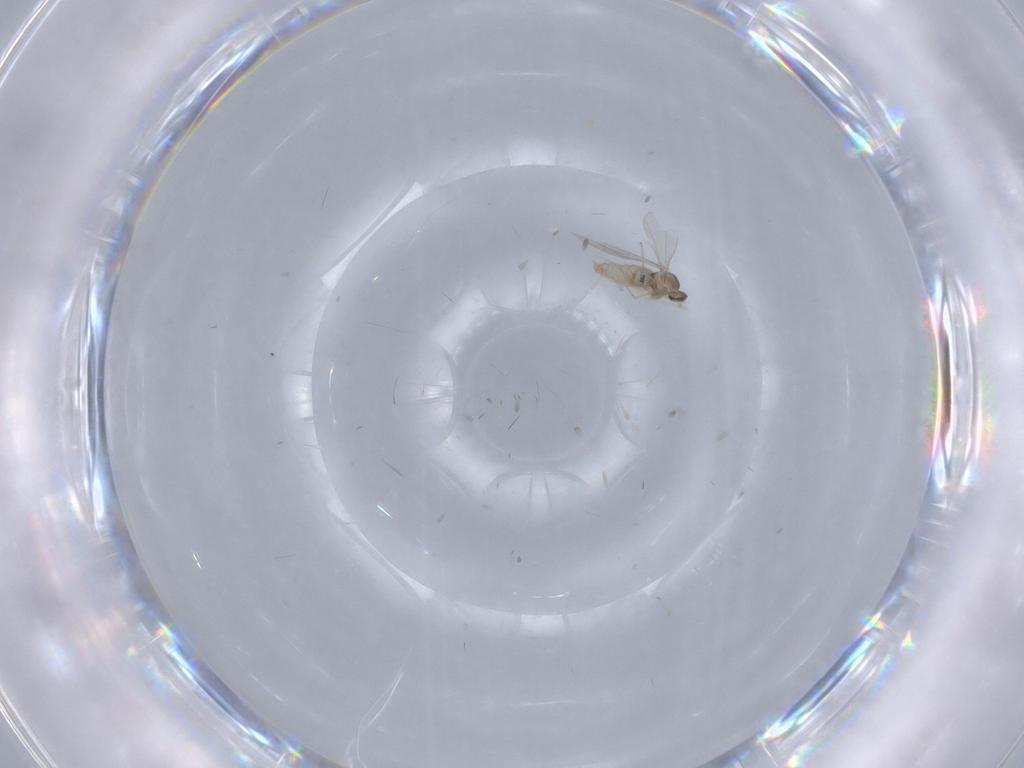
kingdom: Animalia
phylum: Arthropoda
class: Insecta
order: Diptera
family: Cecidomyiidae
